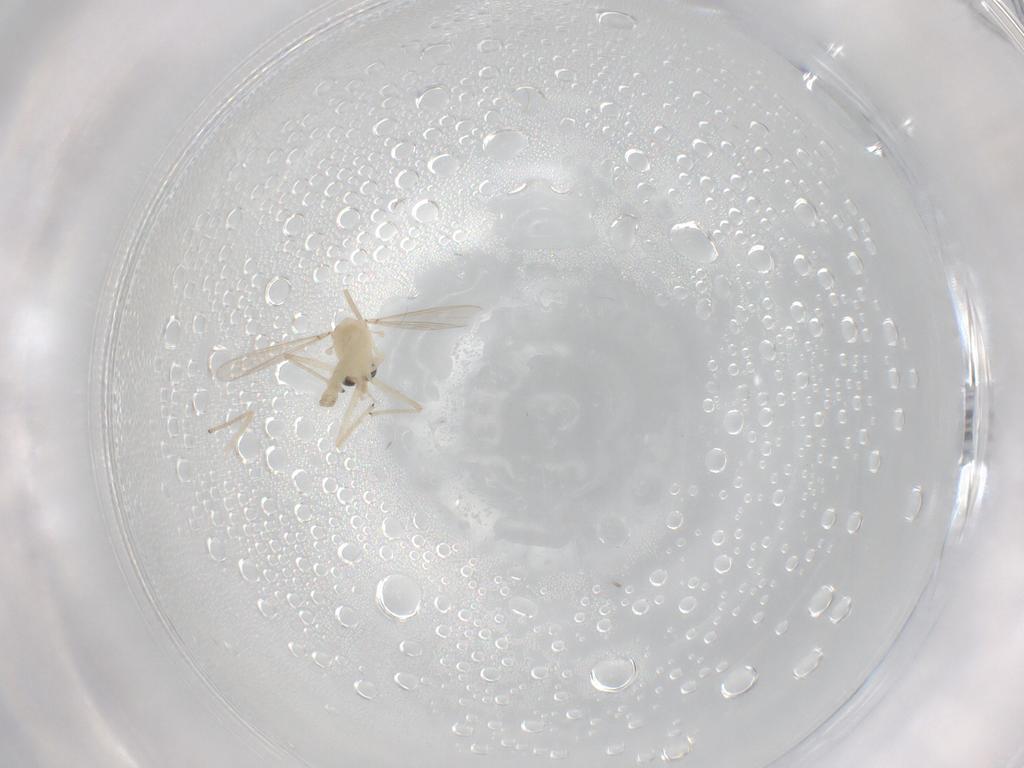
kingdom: Animalia
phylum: Arthropoda
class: Insecta
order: Diptera
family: Chironomidae
